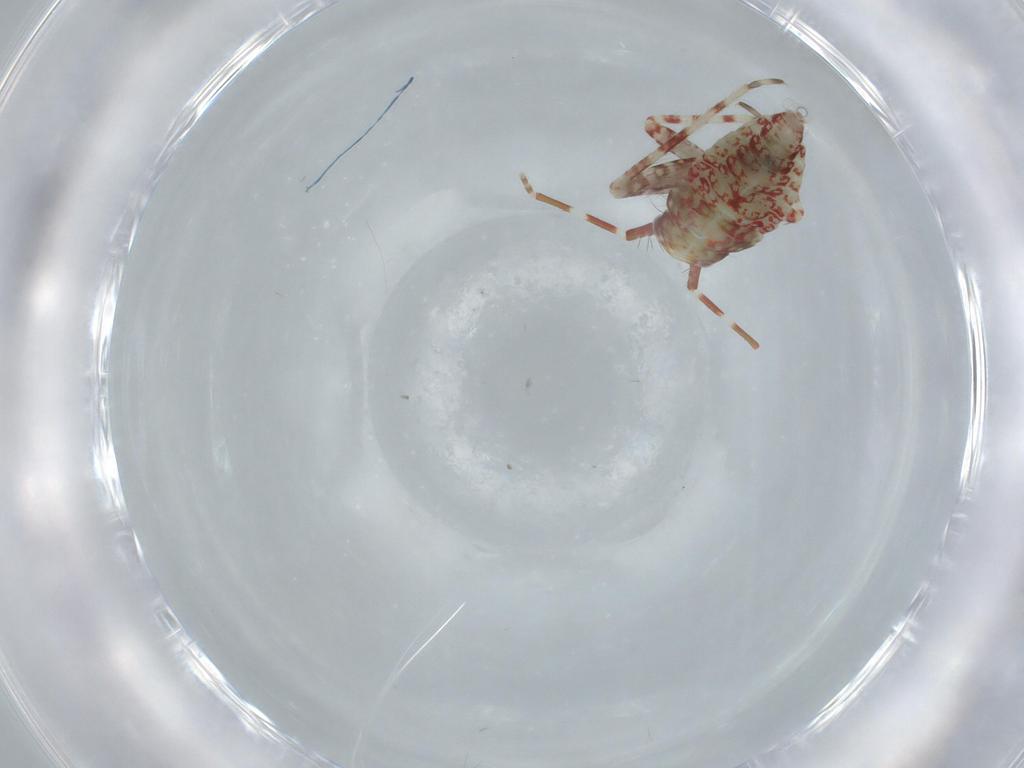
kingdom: Animalia
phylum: Arthropoda
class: Insecta
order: Hemiptera
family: Miridae
